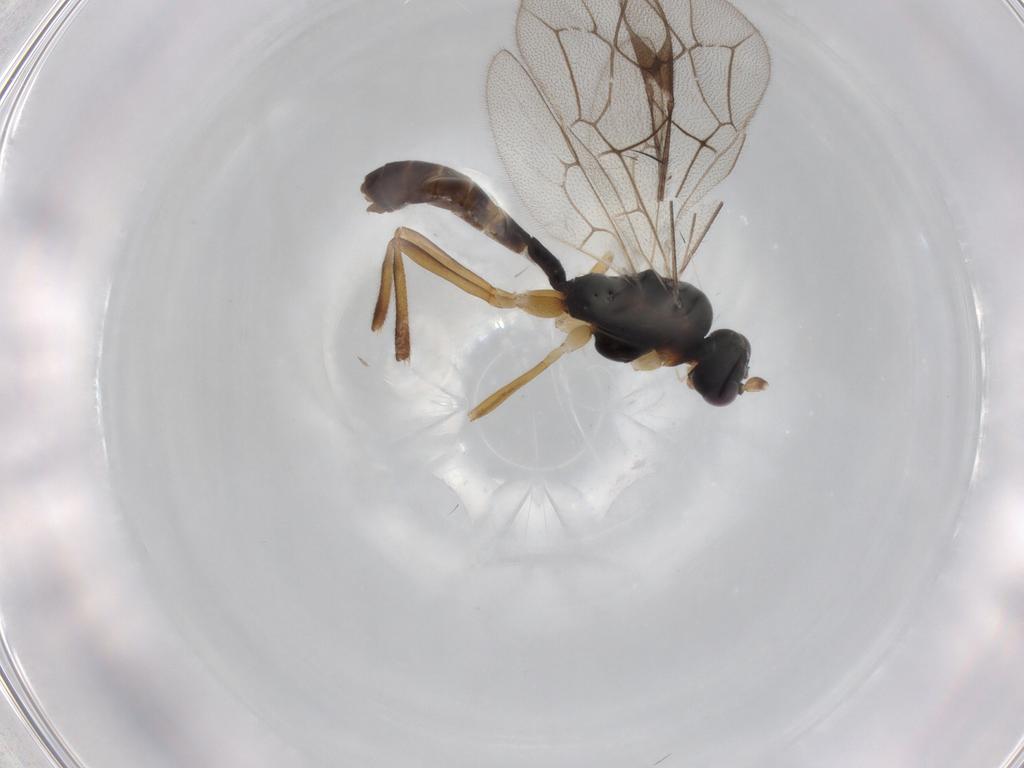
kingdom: Animalia
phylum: Arthropoda
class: Insecta
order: Hymenoptera
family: Ichneumonidae
